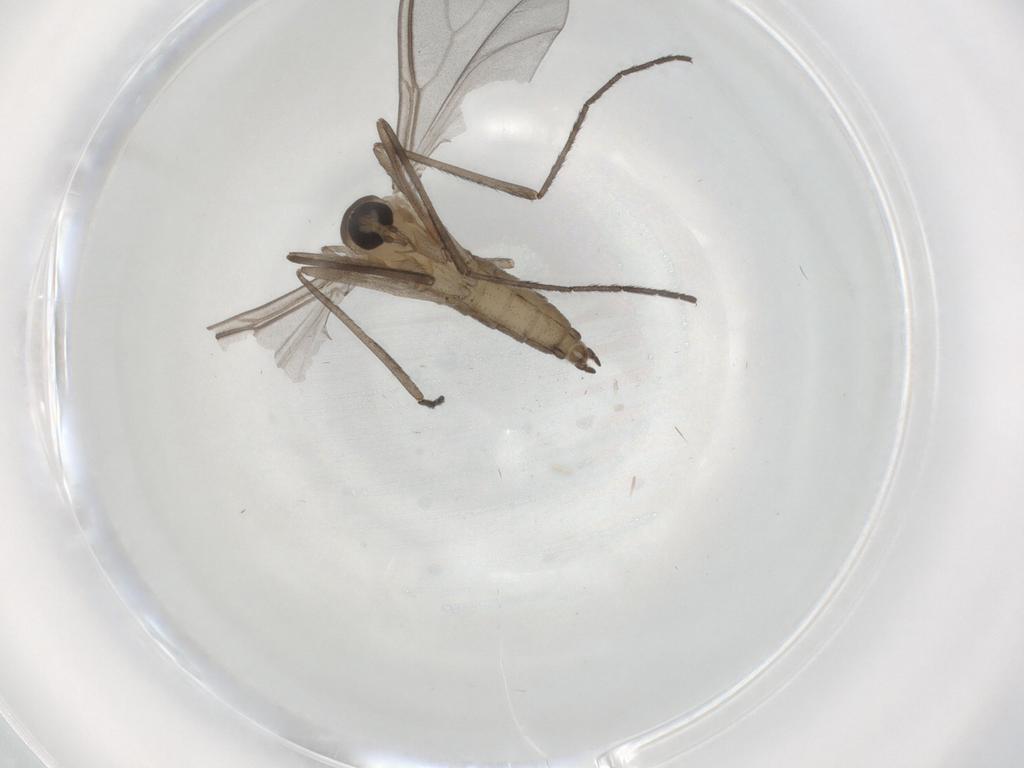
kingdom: Animalia
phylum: Arthropoda
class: Insecta
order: Diptera
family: Cecidomyiidae
